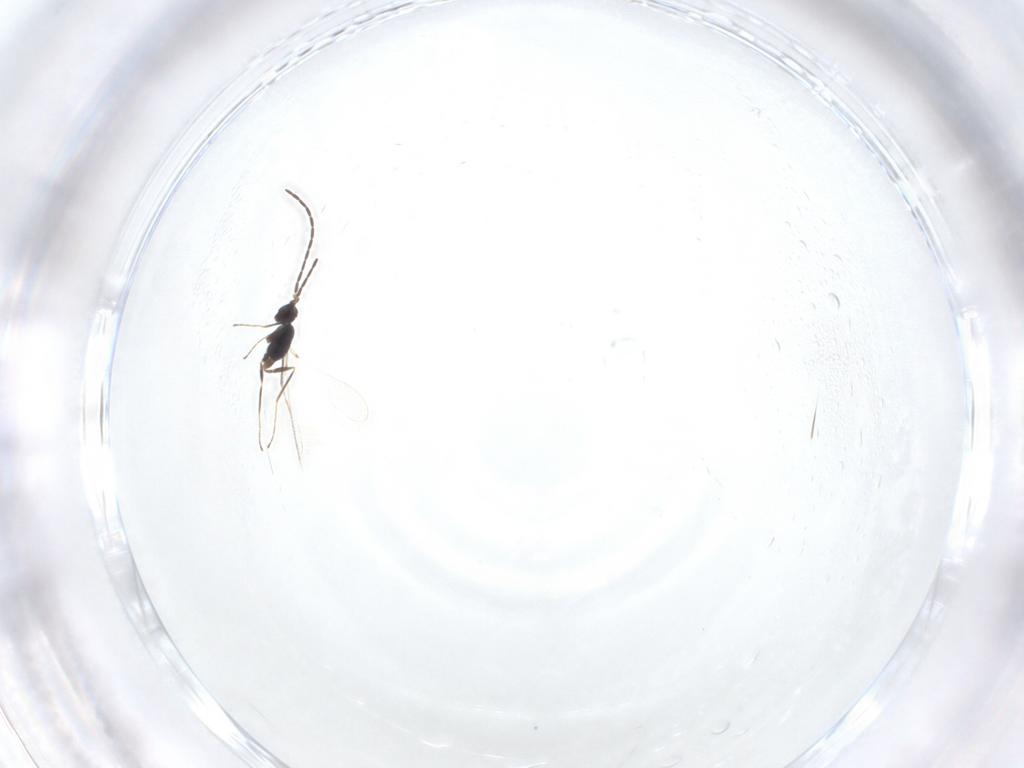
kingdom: Animalia
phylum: Arthropoda
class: Insecta
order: Hymenoptera
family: Mymaridae
